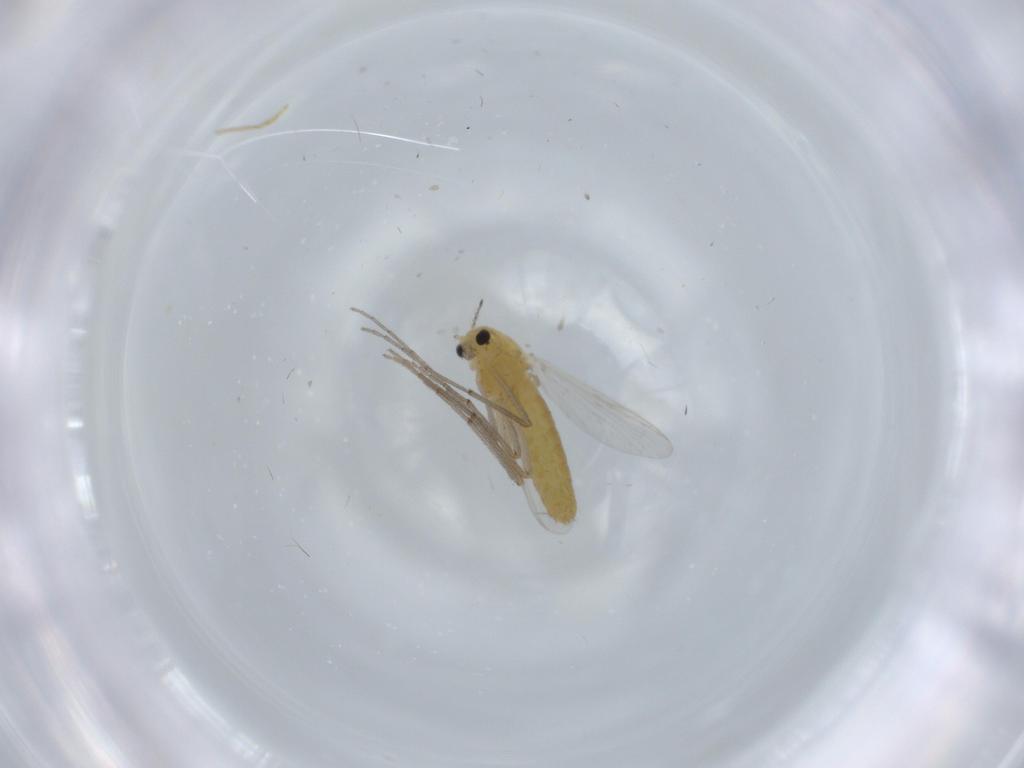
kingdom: Animalia
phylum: Arthropoda
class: Insecta
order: Diptera
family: Chironomidae
